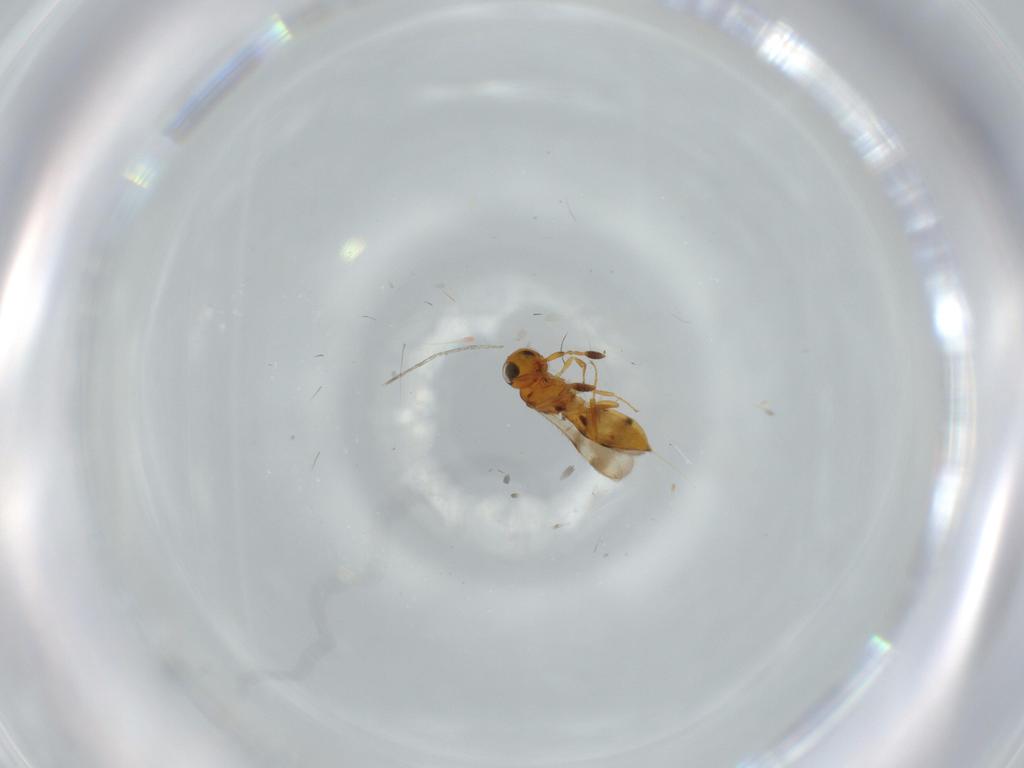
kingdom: Animalia
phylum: Arthropoda
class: Insecta
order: Hymenoptera
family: Scelionidae
